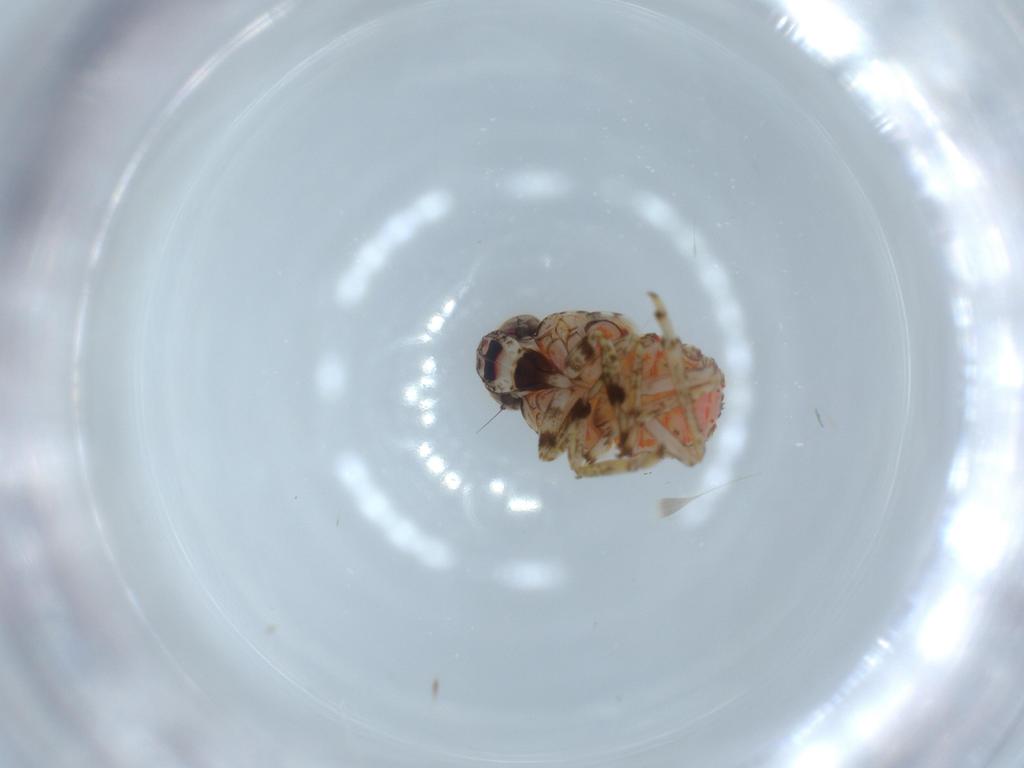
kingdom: Animalia
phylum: Arthropoda
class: Insecta
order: Hemiptera
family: Issidae
